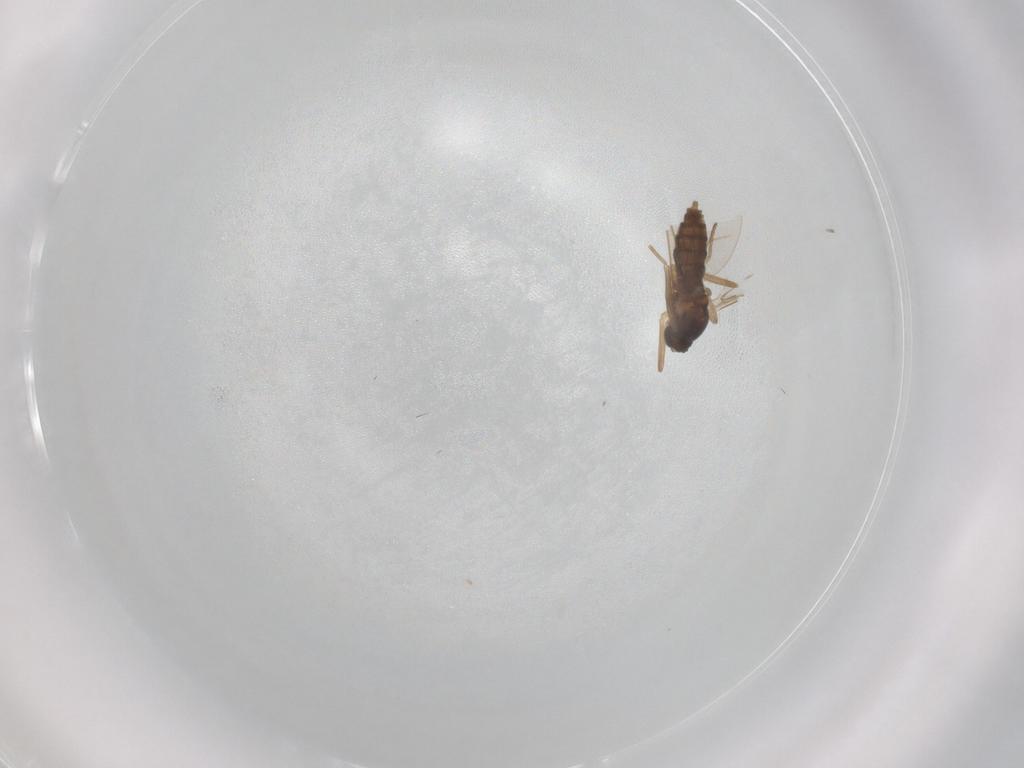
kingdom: Animalia
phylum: Arthropoda
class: Insecta
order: Diptera
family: Cecidomyiidae
